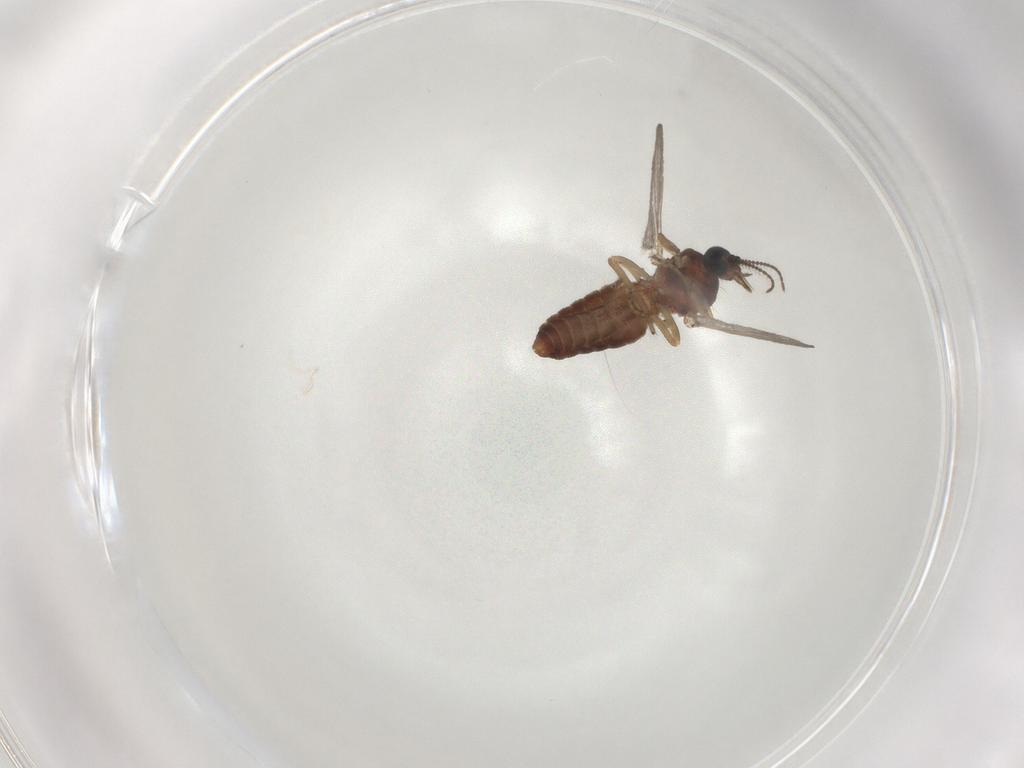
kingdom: Animalia
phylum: Arthropoda
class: Insecta
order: Diptera
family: Ceratopogonidae
